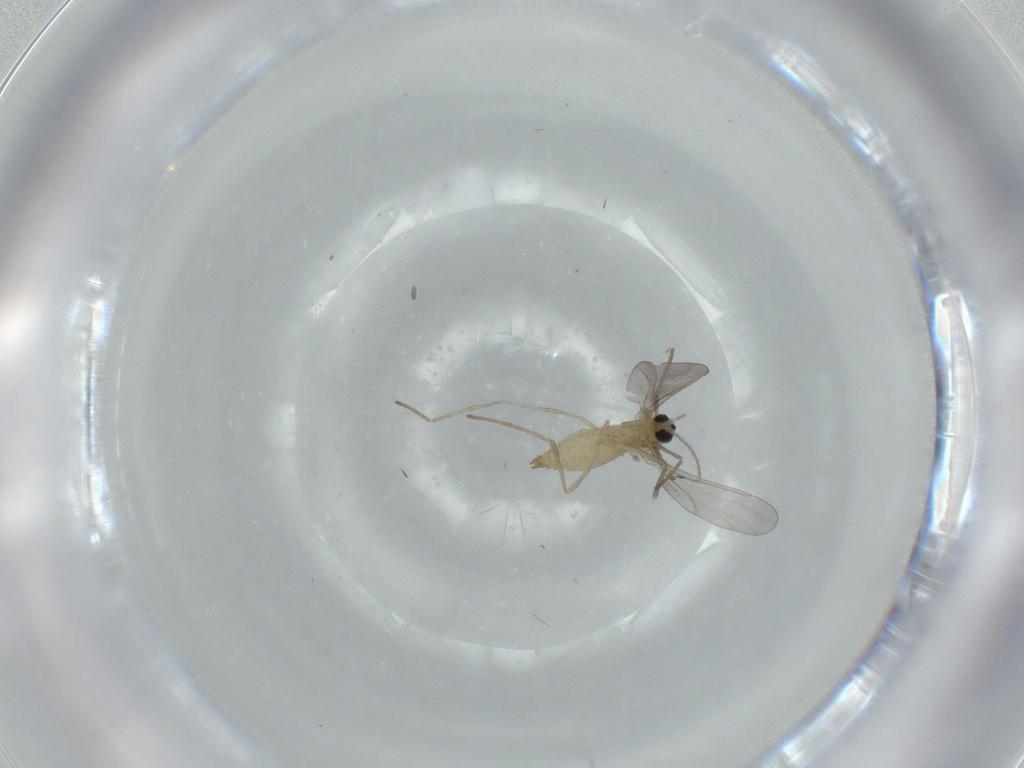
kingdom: Animalia
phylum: Arthropoda
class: Insecta
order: Diptera
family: Cecidomyiidae
